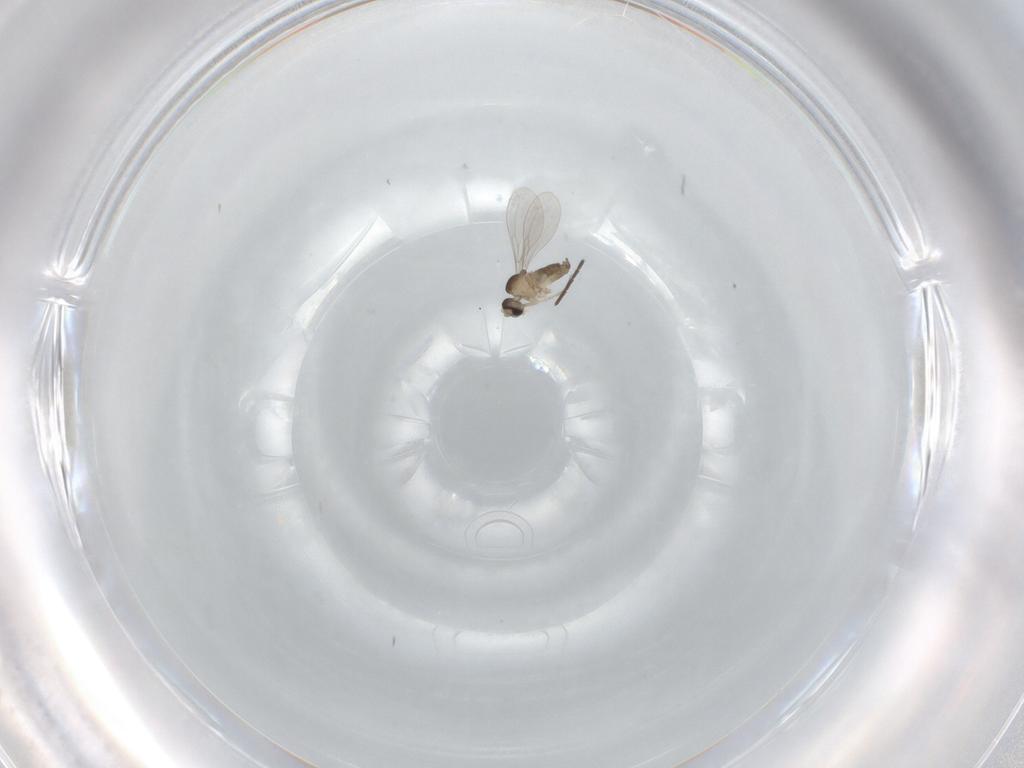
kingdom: Animalia
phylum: Arthropoda
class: Insecta
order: Diptera
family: Sciaridae
